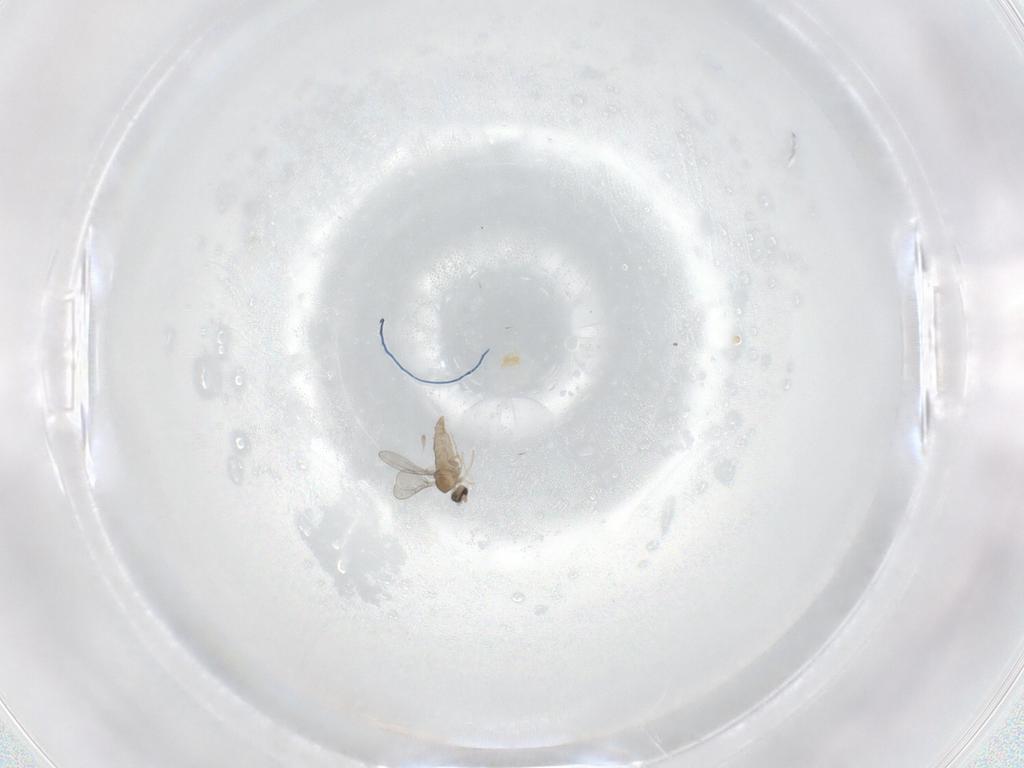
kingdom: Animalia
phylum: Arthropoda
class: Insecta
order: Diptera
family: Cecidomyiidae
